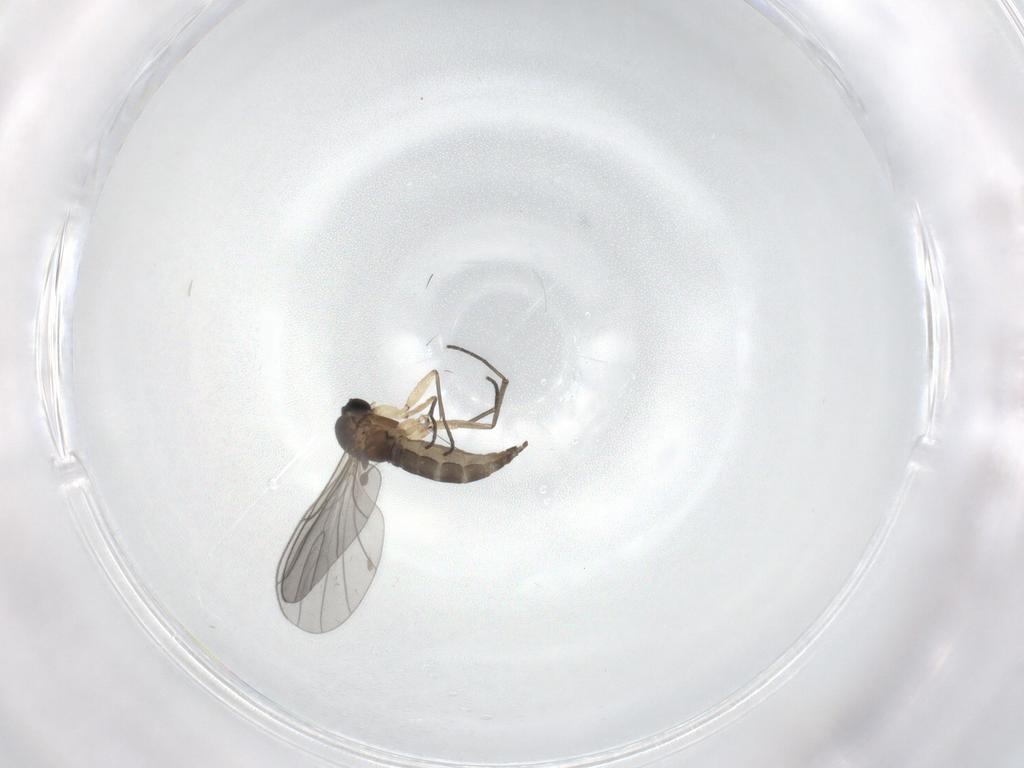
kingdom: Animalia
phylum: Arthropoda
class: Insecta
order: Diptera
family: Sciaridae
